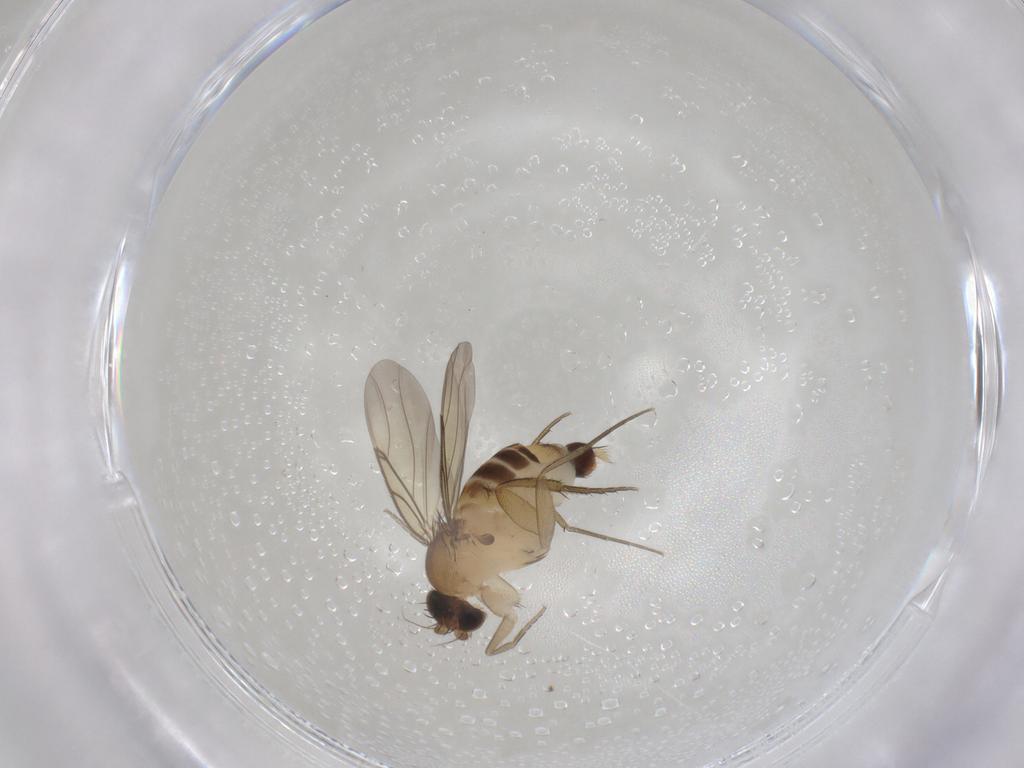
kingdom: Animalia
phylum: Arthropoda
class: Insecta
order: Diptera
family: Phoridae
